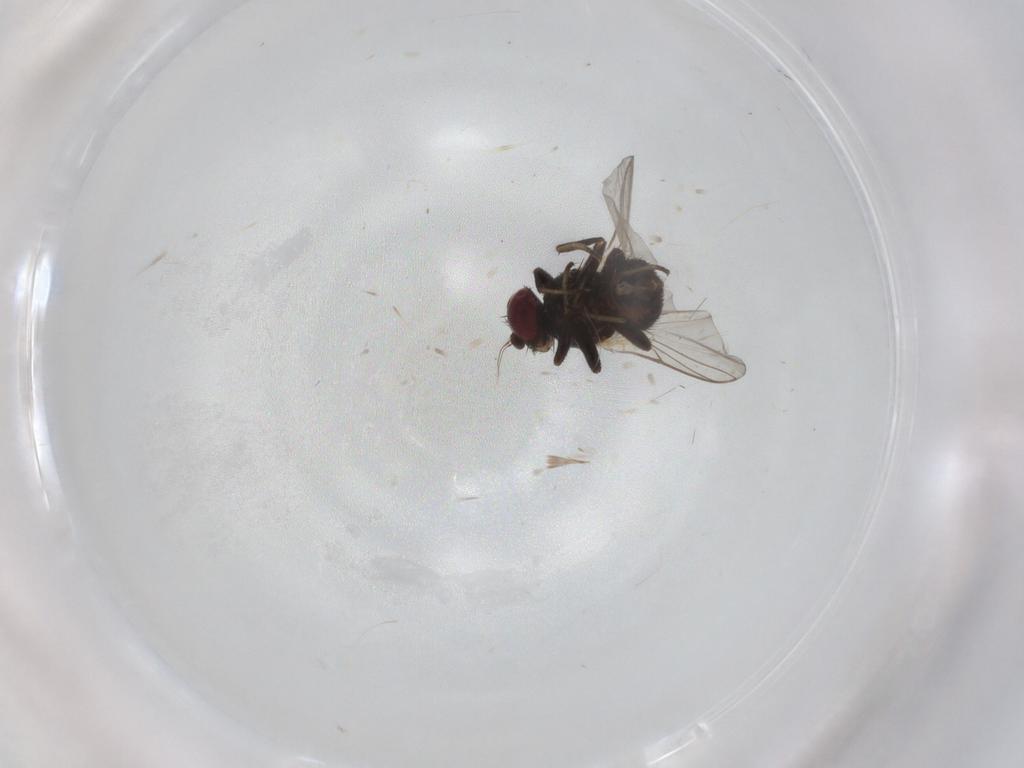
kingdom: Animalia
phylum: Arthropoda
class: Insecta
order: Diptera
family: Agromyzidae
